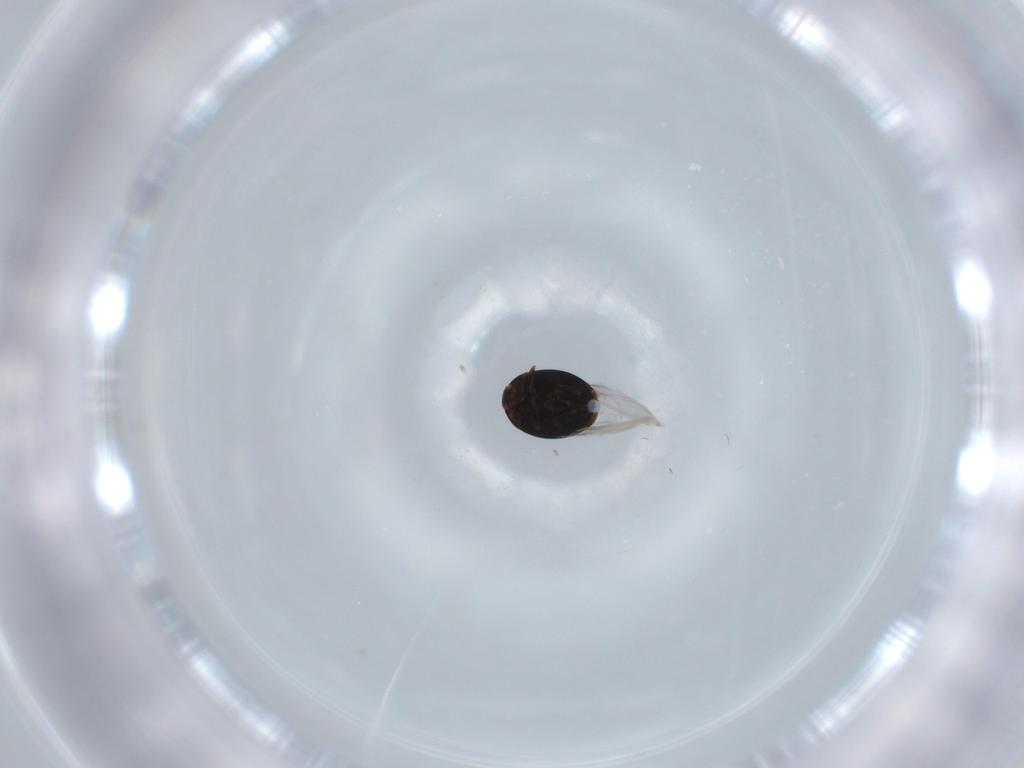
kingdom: Animalia
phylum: Arthropoda
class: Insecta
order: Coleoptera
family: Corylophidae
